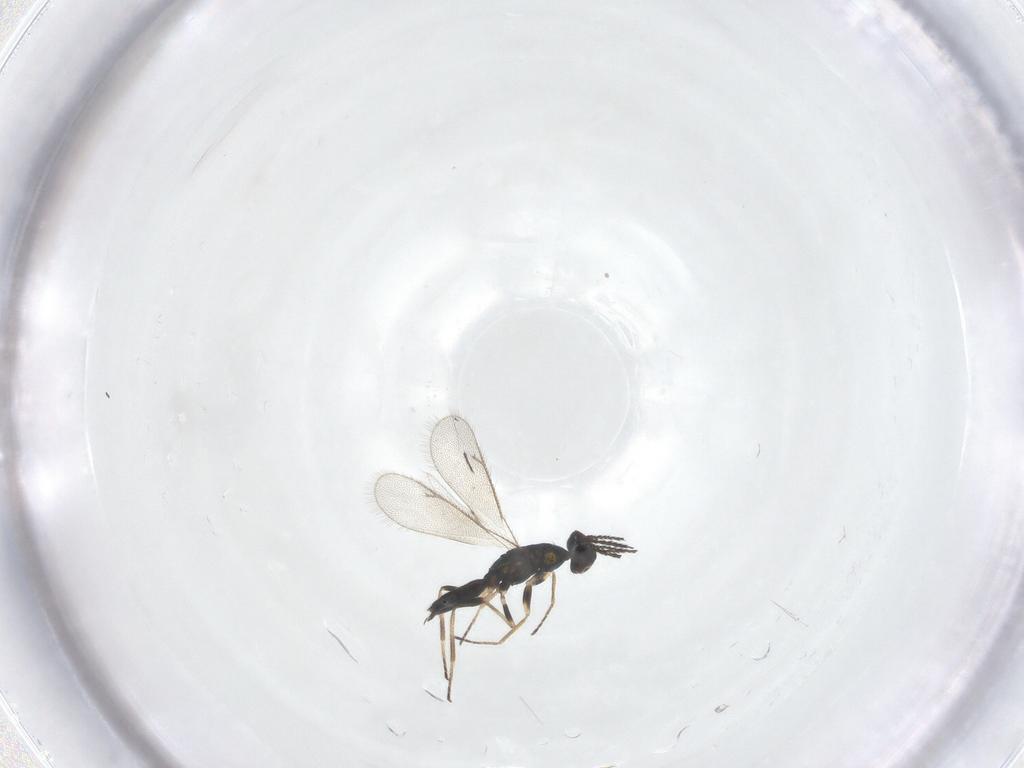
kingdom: Animalia
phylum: Arthropoda
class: Insecta
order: Hymenoptera
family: Eulophidae
